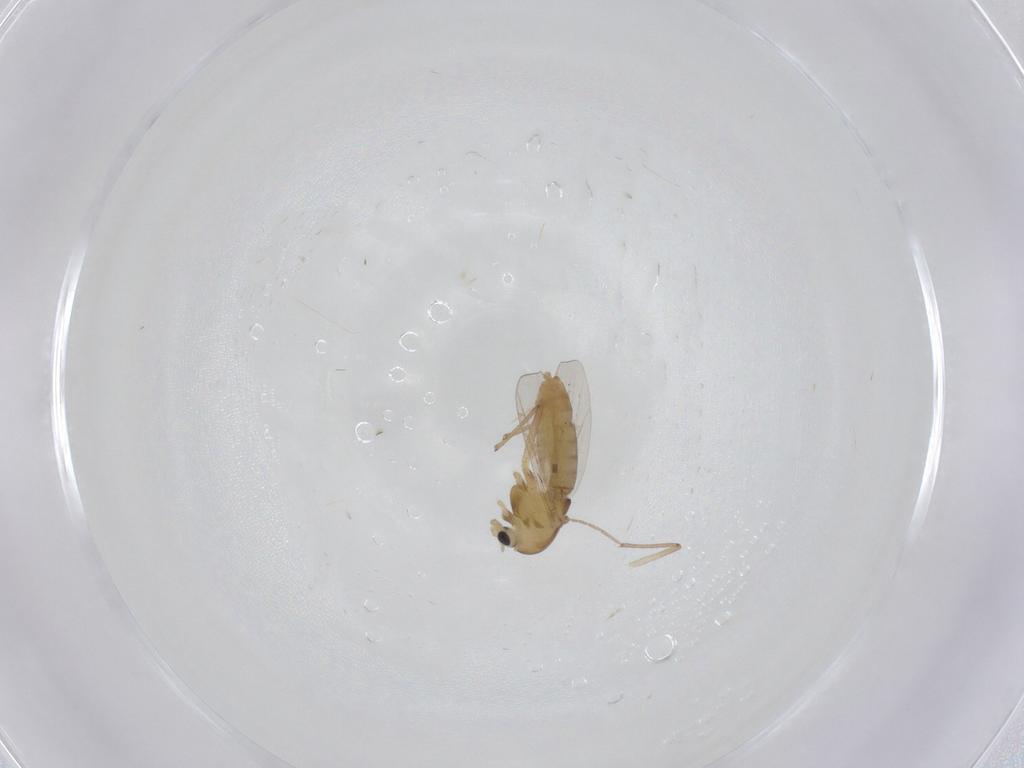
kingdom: Animalia
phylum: Arthropoda
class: Insecta
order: Diptera
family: Chironomidae
